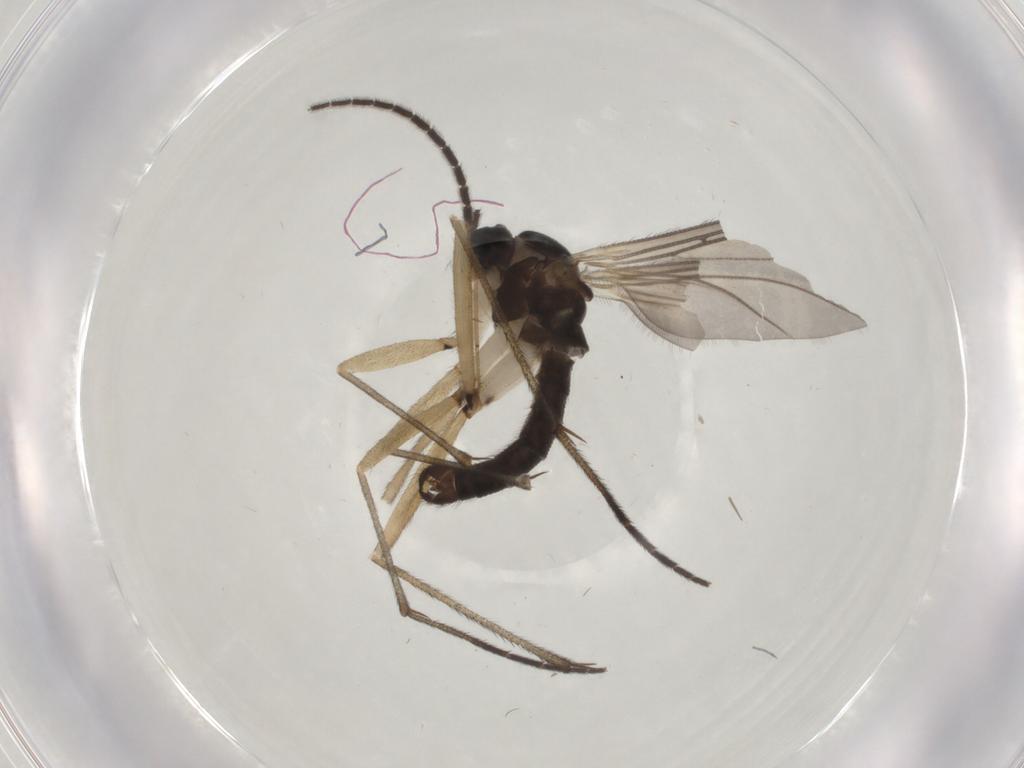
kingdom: Animalia
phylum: Arthropoda
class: Insecta
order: Diptera
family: Sciaridae
